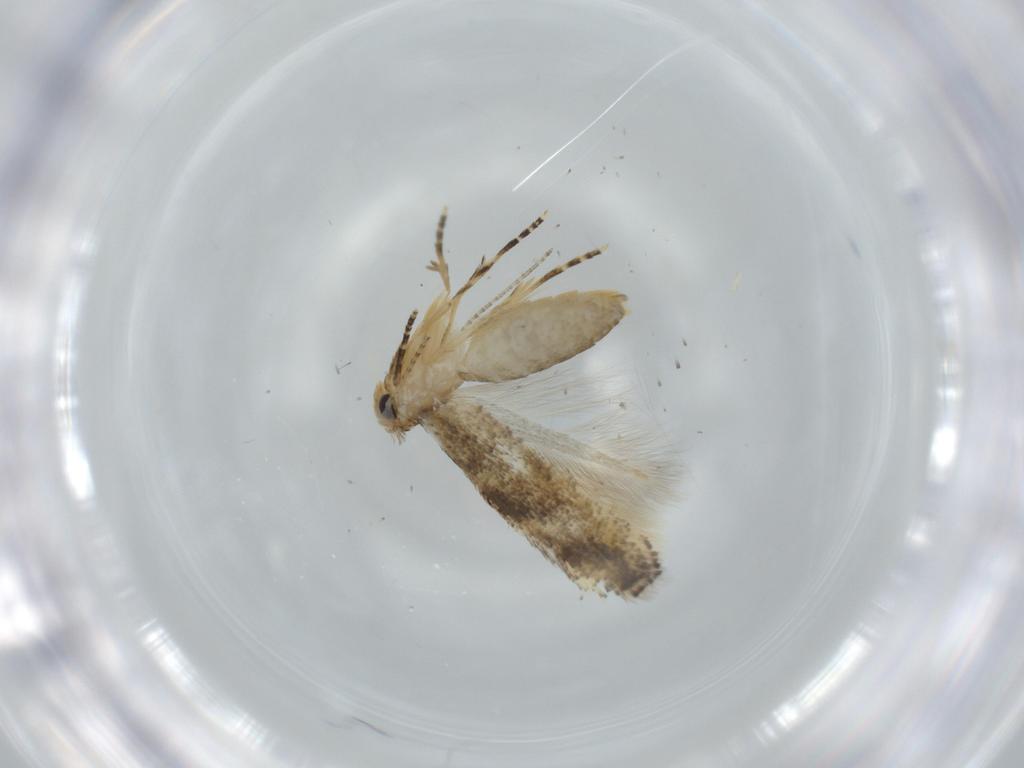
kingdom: Animalia
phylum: Arthropoda
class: Insecta
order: Lepidoptera
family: Bucculatricidae
